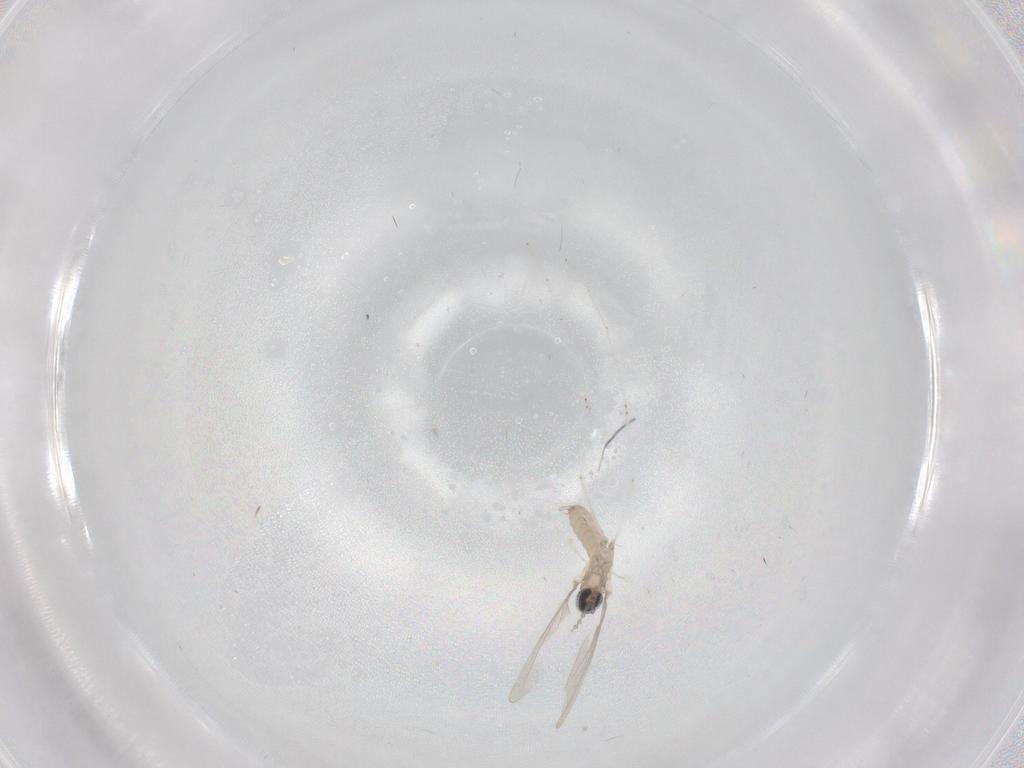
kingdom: Animalia
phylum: Arthropoda
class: Insecta
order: Diptera
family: Cecidomyiidae
